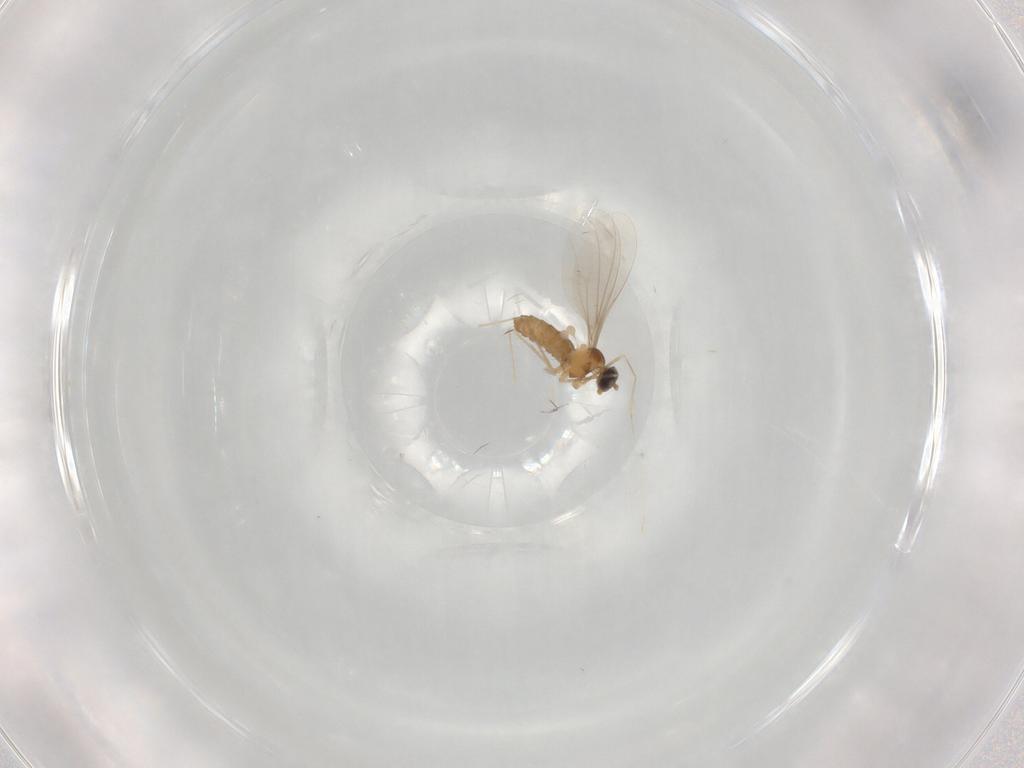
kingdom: Animalia
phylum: Arthropoda
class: Insecta
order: Diptera
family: Cecidomyiidae
